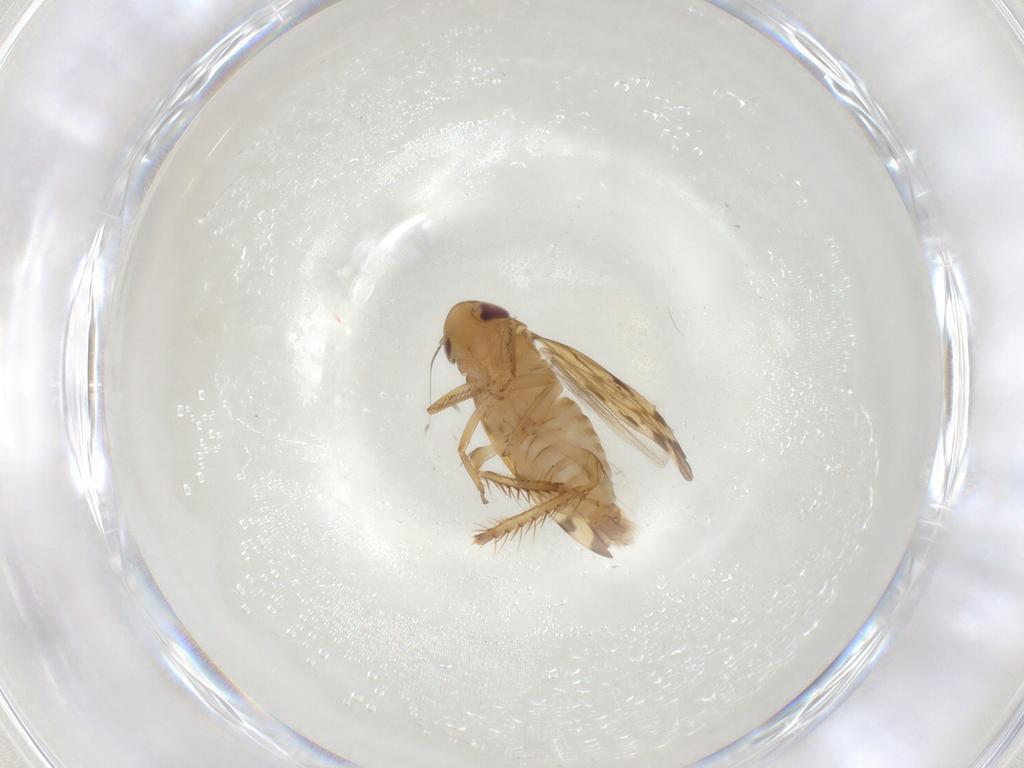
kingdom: Animalia
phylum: Arthropoda
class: Insecta
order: Hemiptera
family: Cicadellidae
